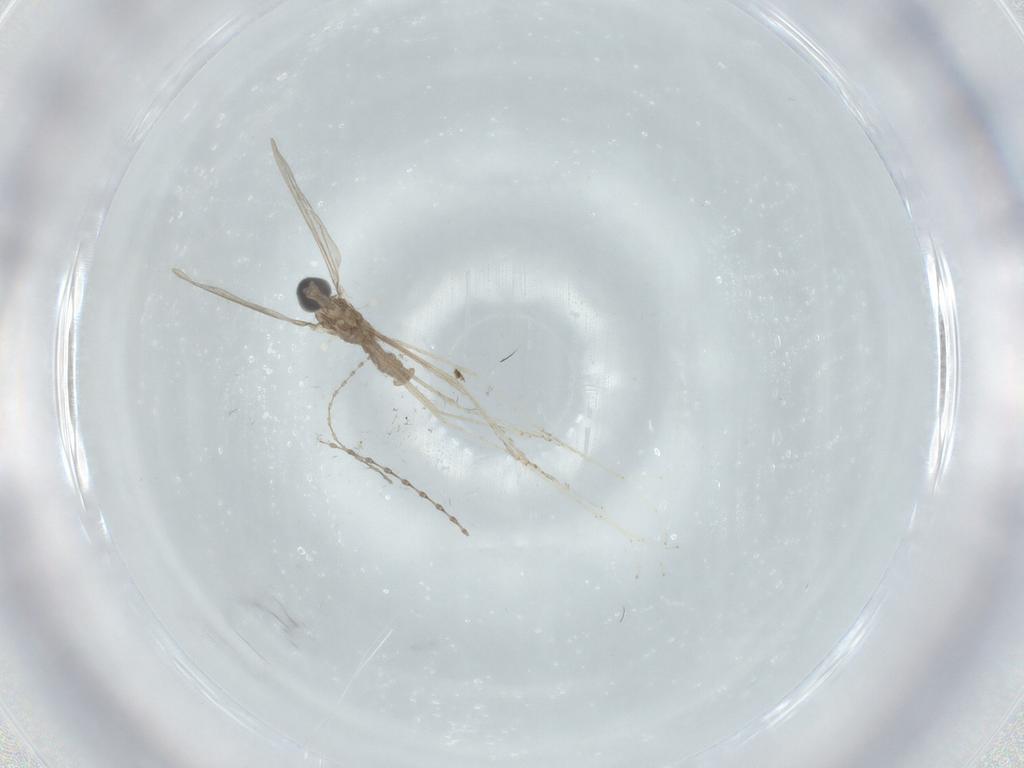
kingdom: Animalia
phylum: Arthropoda
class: Insecta
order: Diptera
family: Cecidomyiidae
